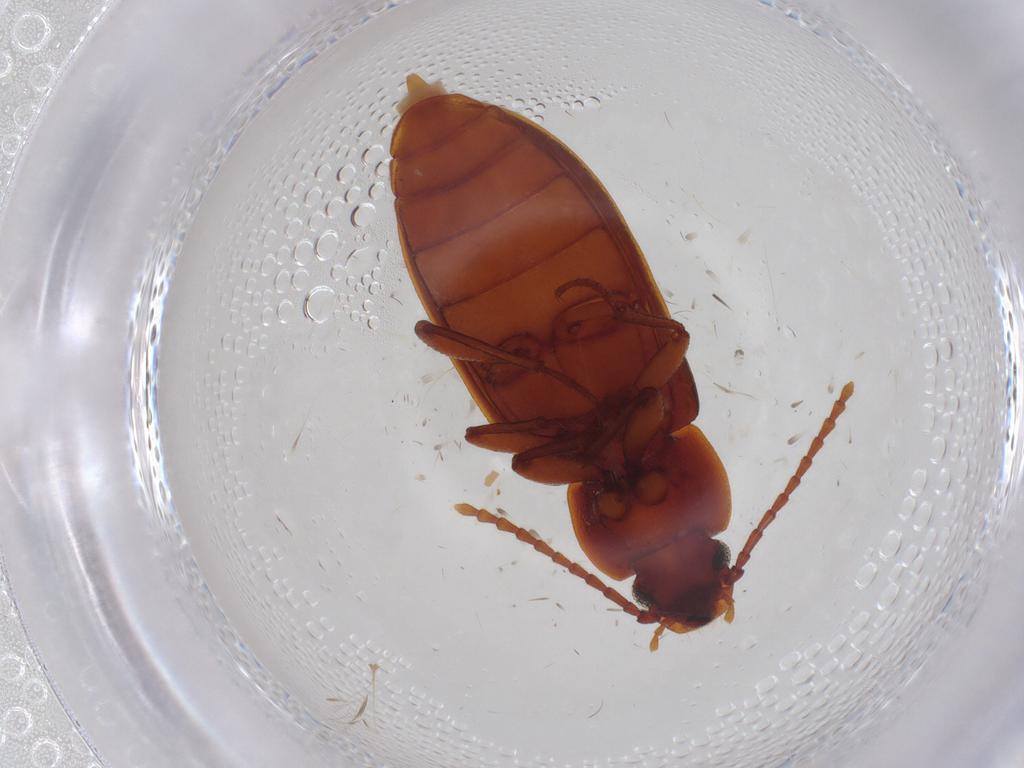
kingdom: Animalia
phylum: Arthropoda
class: Insecta
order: Coleoptera
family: Tenebrionidae
